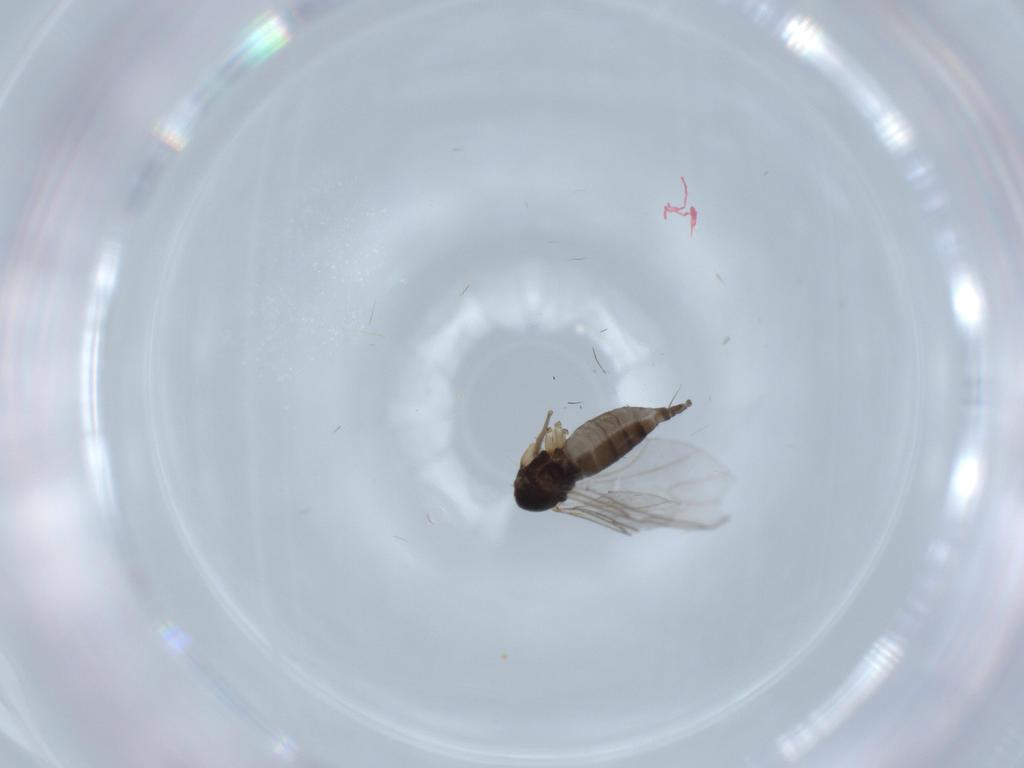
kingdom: Animalia
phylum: Arthropoda
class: Insecta
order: Diptera
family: Sciaridae
